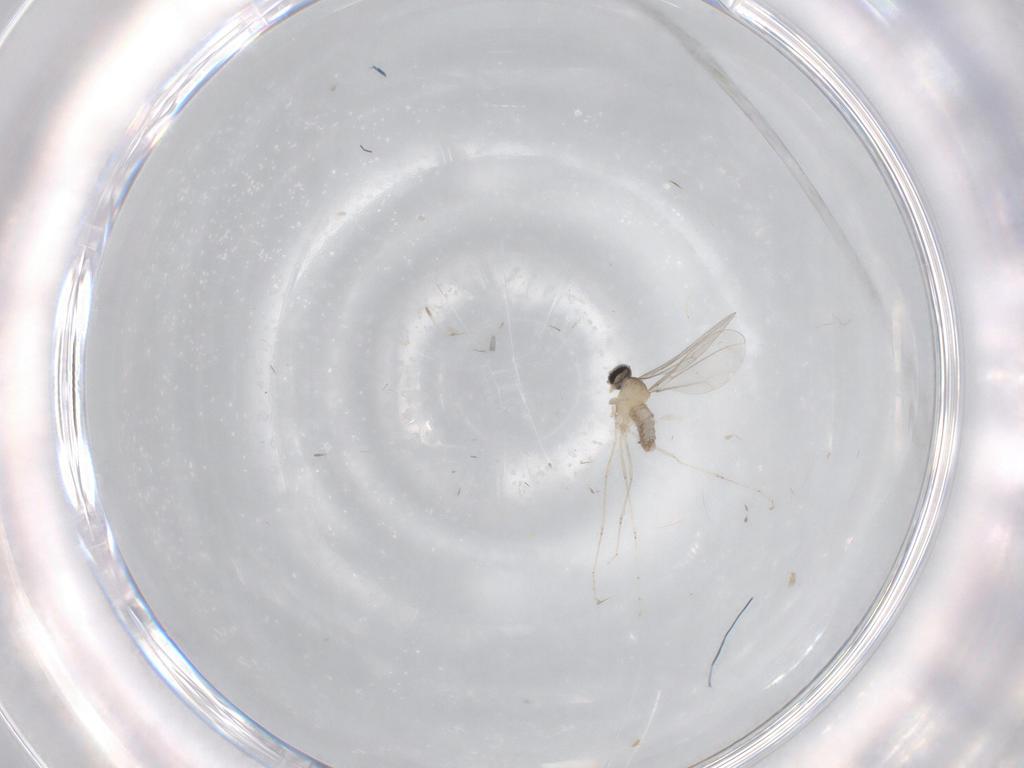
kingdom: Animalia
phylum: Arthropoda
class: Insecta
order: Diptera
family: Cecidomyiidae
